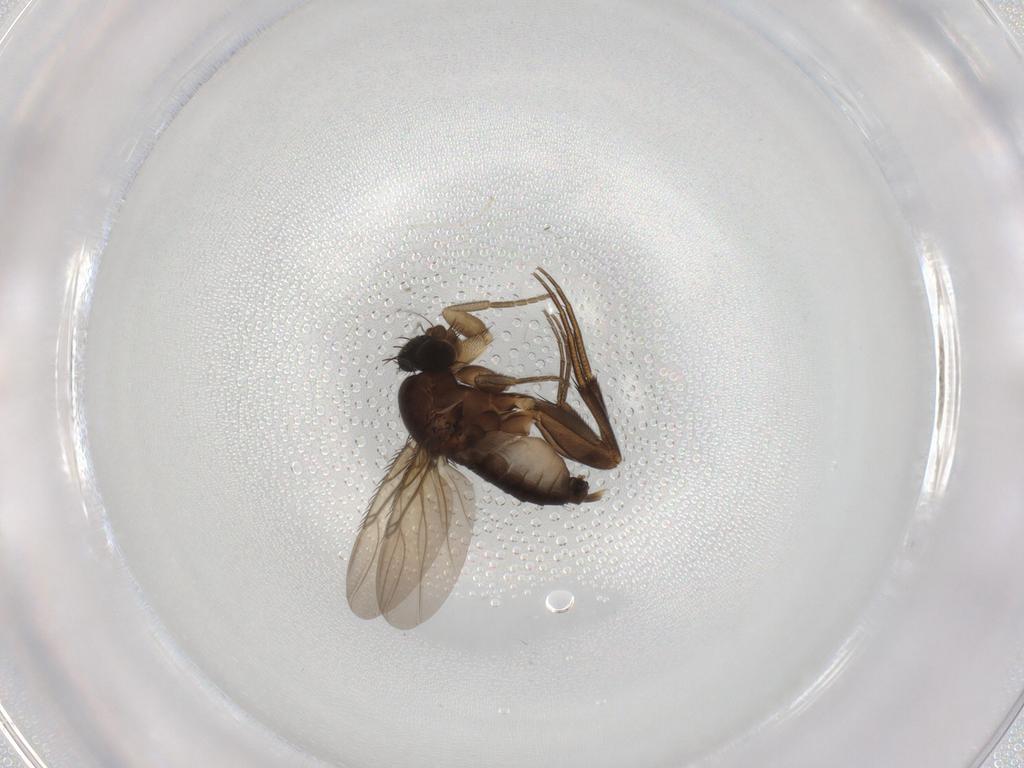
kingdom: Animalia
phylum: Arthropoda
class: Insecta
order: Diptera
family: Phoridae
